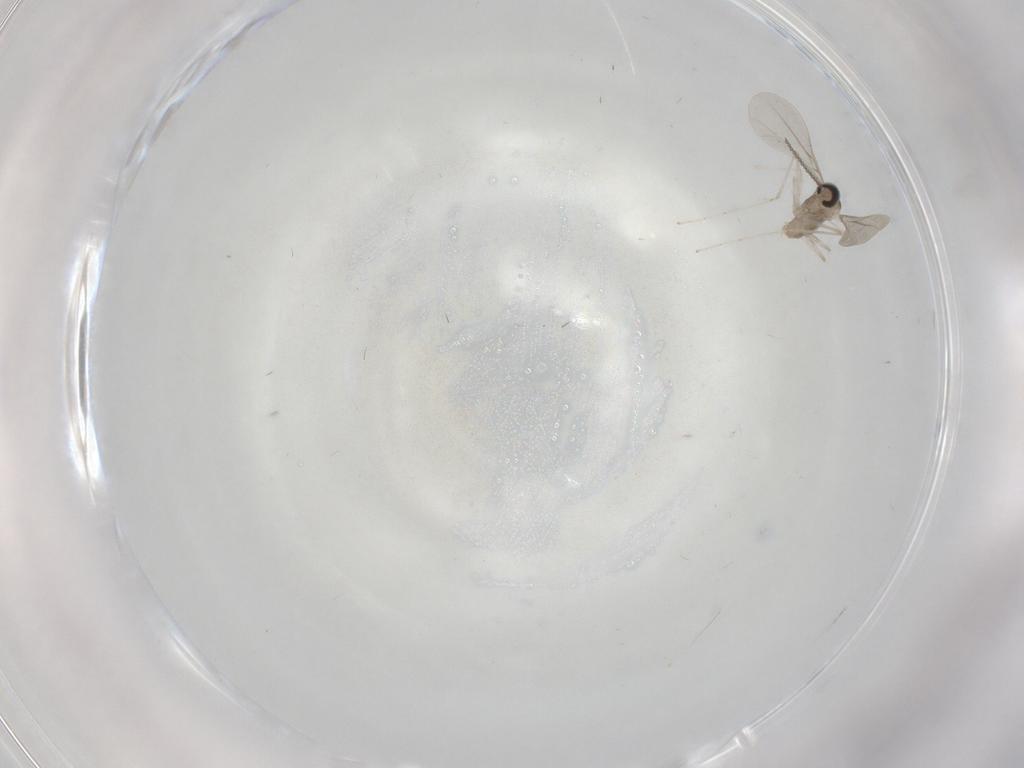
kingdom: Animalia
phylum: Arthropoda
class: Insecta
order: Diptera
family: Cecidomyiidae
